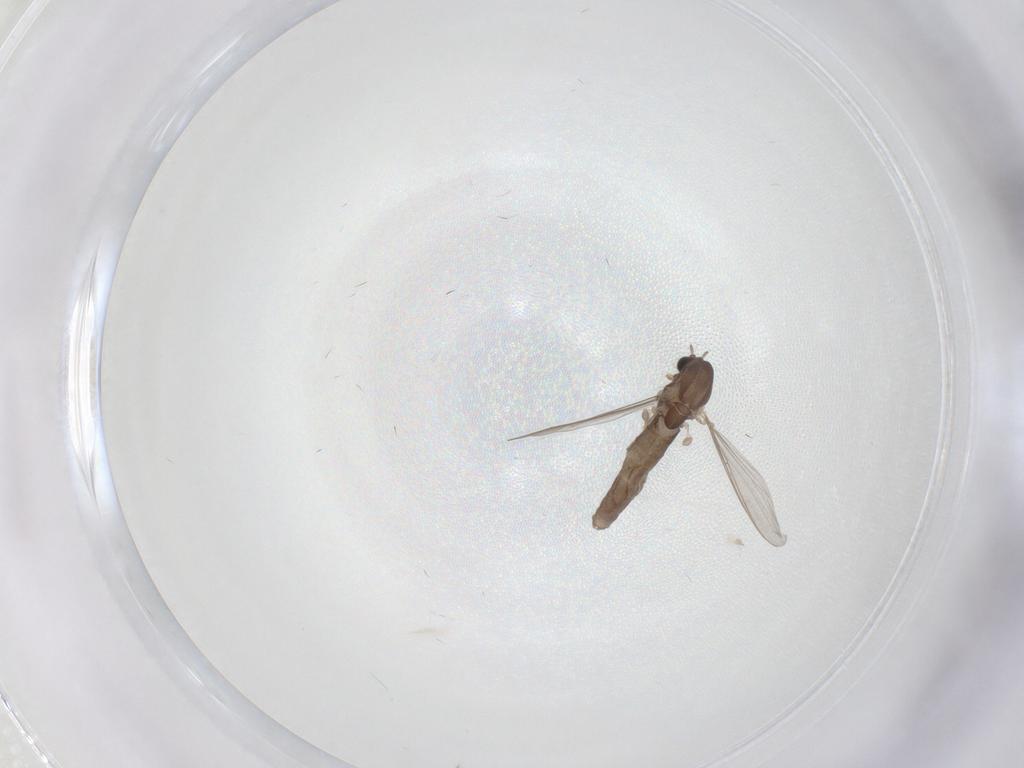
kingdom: Animalia
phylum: Arthropoda
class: Insecta
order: Diptera
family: Chironomidae
